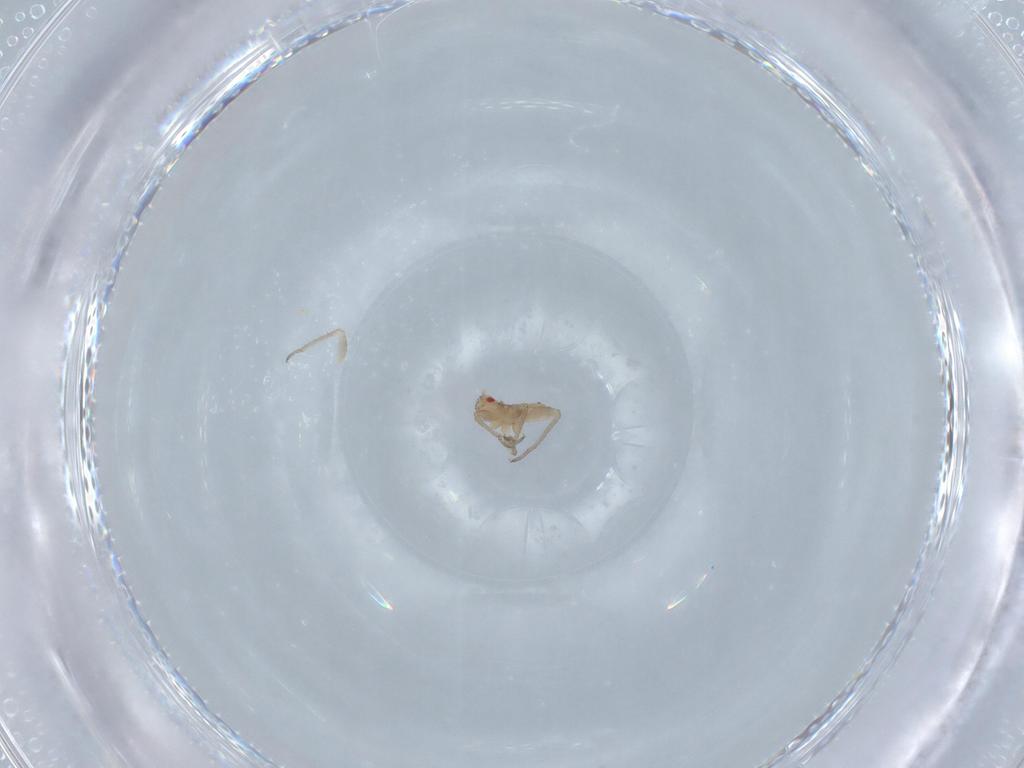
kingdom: Animalia
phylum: Arthropoda
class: Insecta
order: Hemiptera
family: Aphididae
